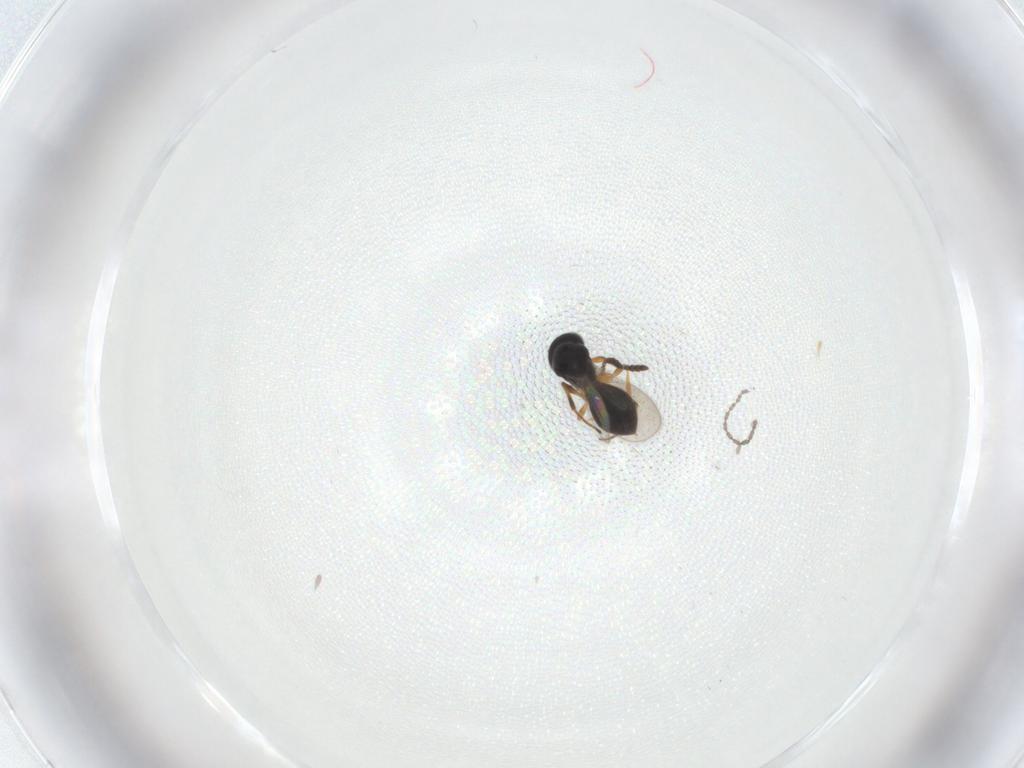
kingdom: Animalia
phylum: Arthropoda
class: Insecta
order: Hymenoptera
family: Platygastridae
